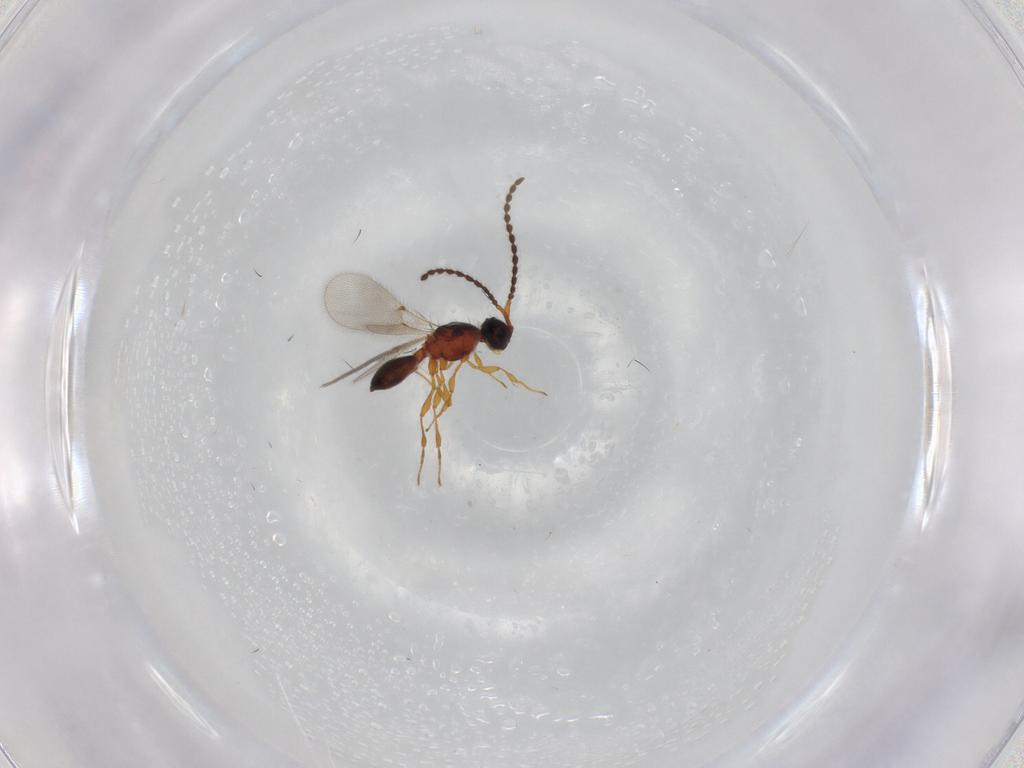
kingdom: Animalia
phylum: Arthropoda
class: Insecta
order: Hymenoptera
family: Diapriidae
